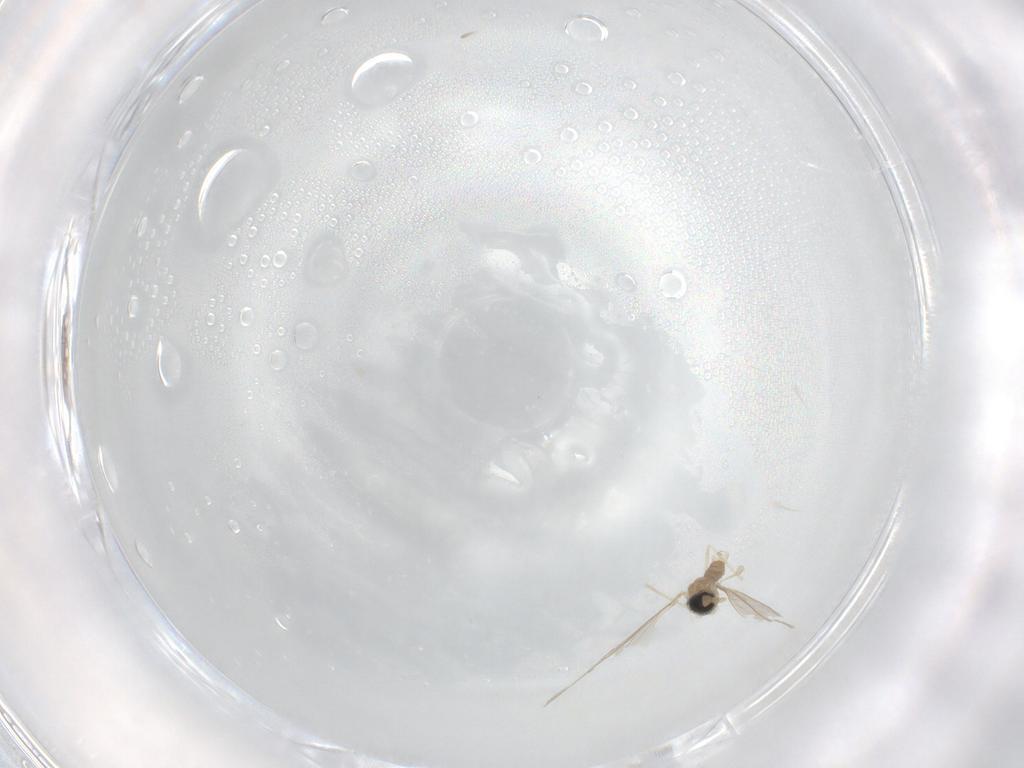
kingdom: Animalia
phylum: Arthropoda
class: Insecta
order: Diptera
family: Cecidomyiidae
